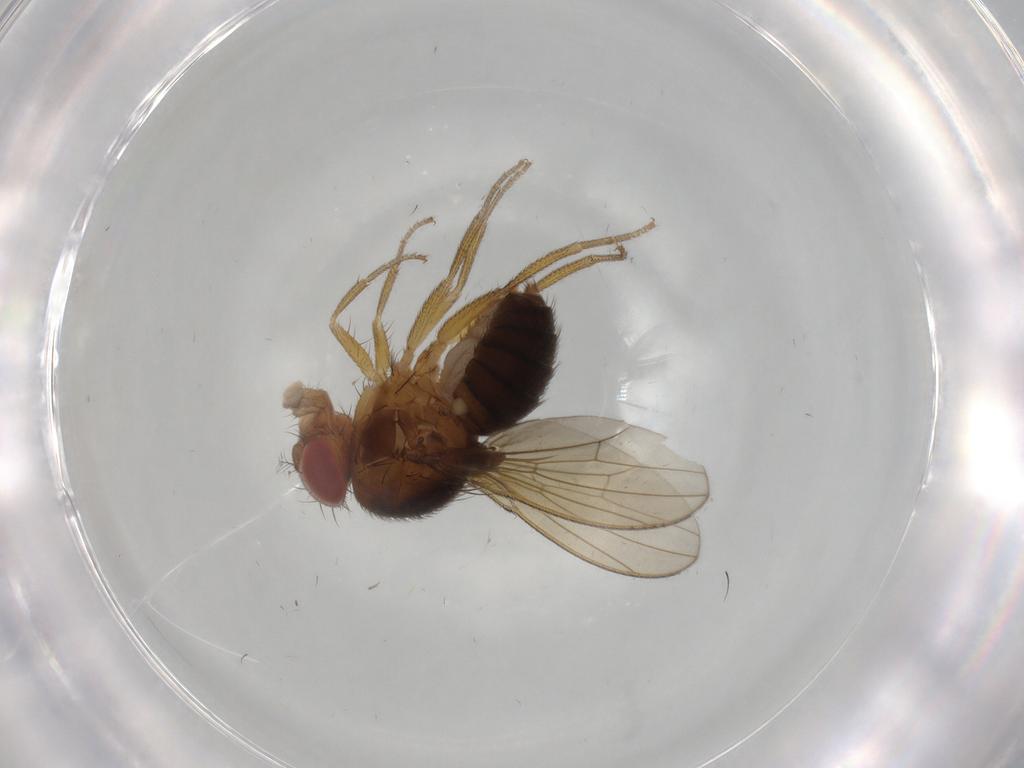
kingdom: Animalia
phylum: Arthropoda
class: Insecta
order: Diptera
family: Drosophilidae
